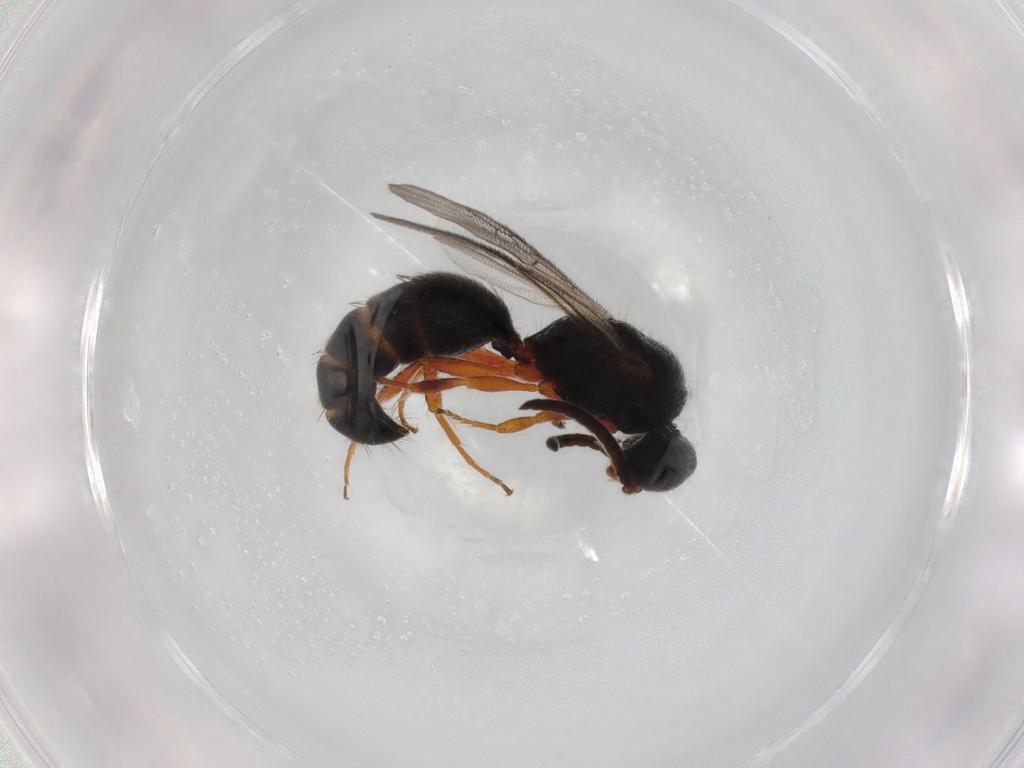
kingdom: Animalia
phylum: Arthropoda
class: Insecta
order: Hymenoptera
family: Mutillidae
